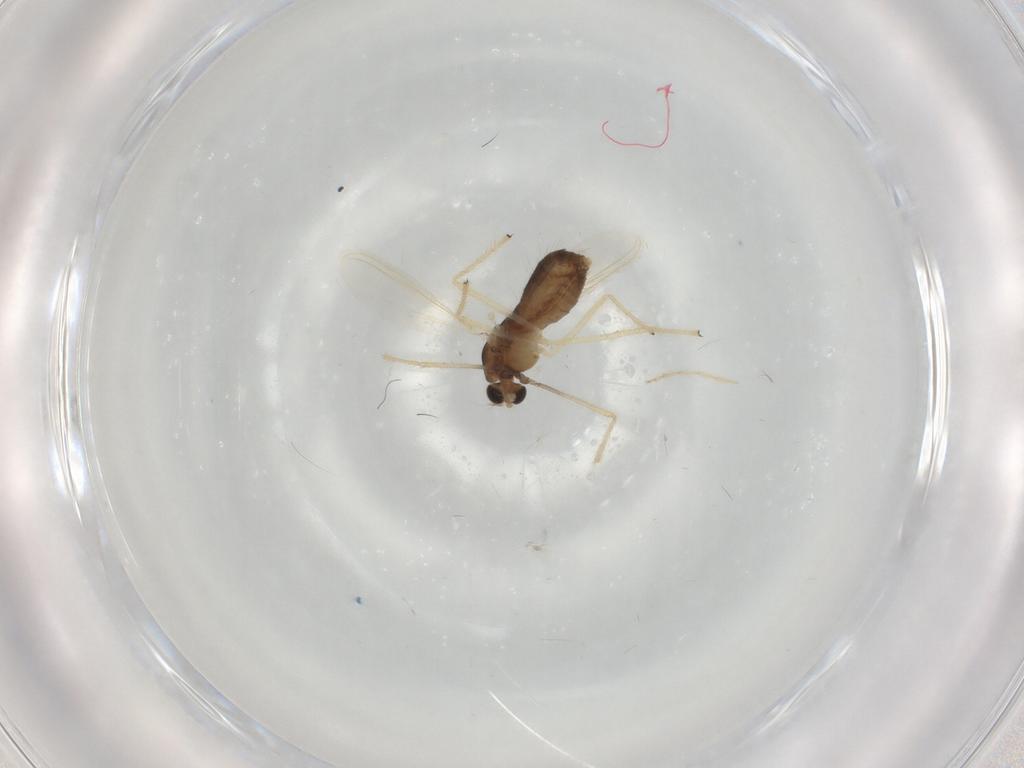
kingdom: Animalia
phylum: Arthropoda
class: Insecta
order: Diptera
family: Chironomidae
